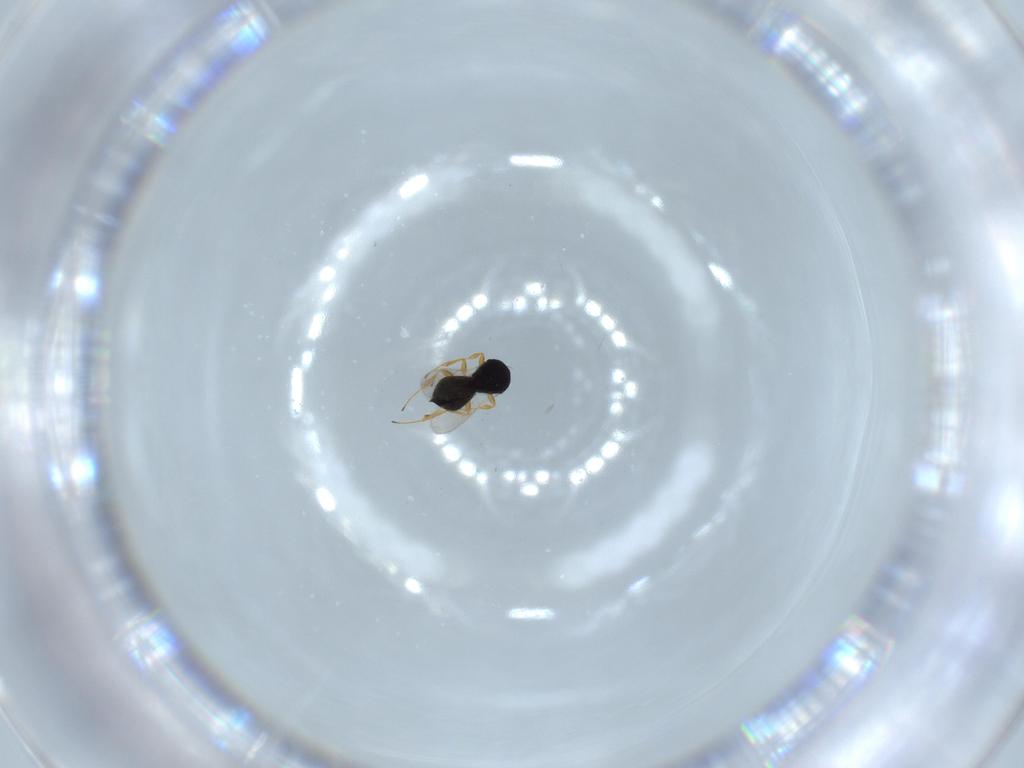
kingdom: Animalia
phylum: Arthropoda
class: Insecta
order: Hymenoptera
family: Scelionidae
